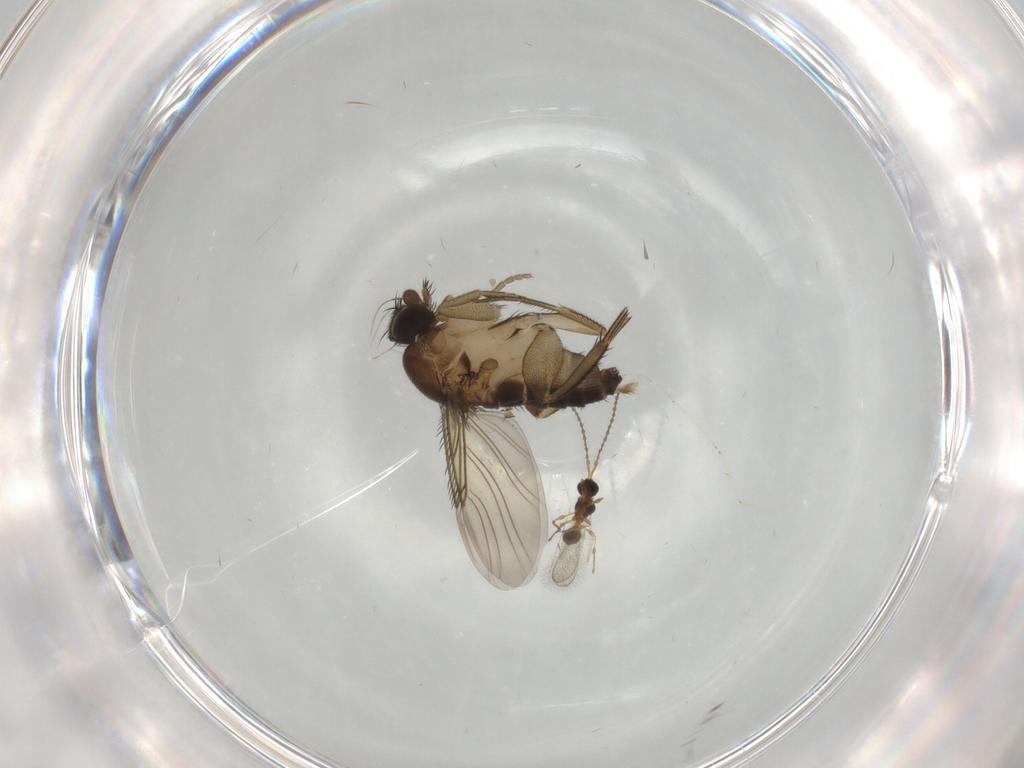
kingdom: Animalia
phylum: Arthropoda
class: Insecta
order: Diptera
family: Phoridae
